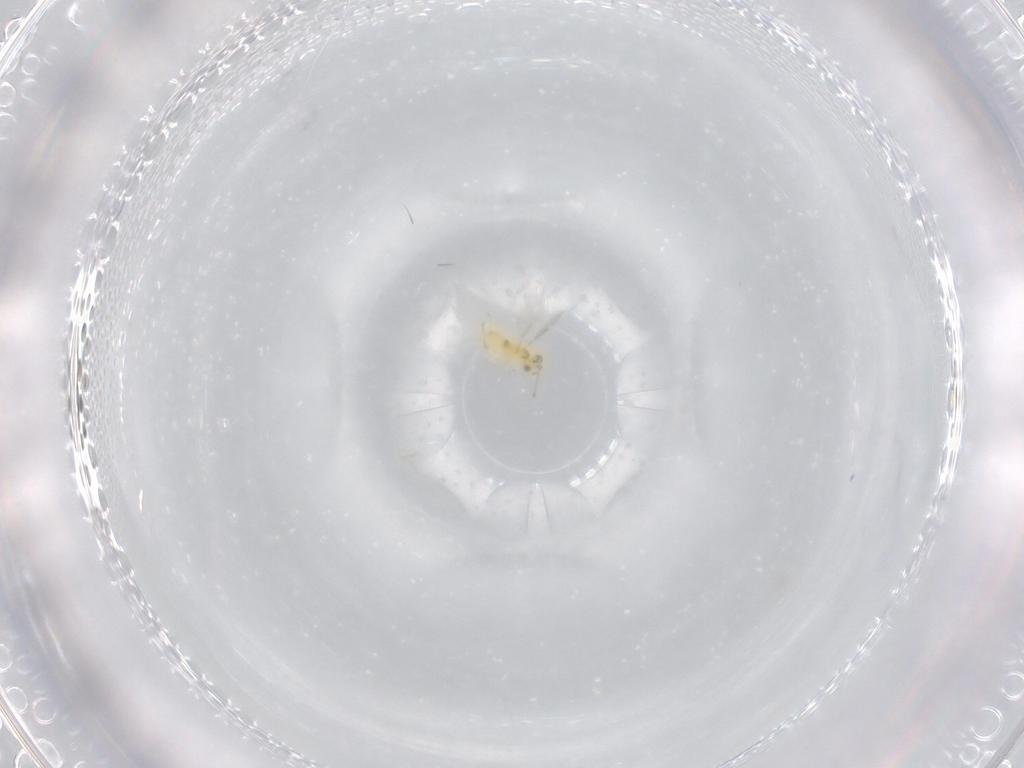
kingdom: Animalia
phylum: Arthropoda
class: Insecta
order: Hymenoptera
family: Aphelinidae
